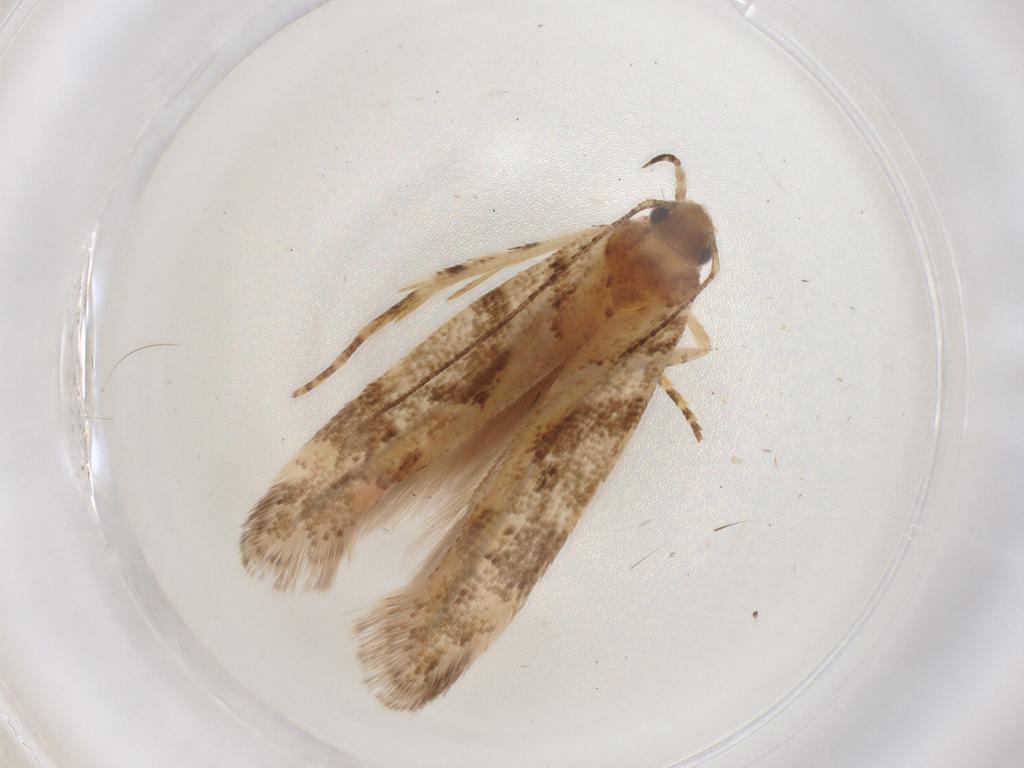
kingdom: Animalia
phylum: Arthropoda
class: Insecta
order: Lepidoptera
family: Gelechiidae
